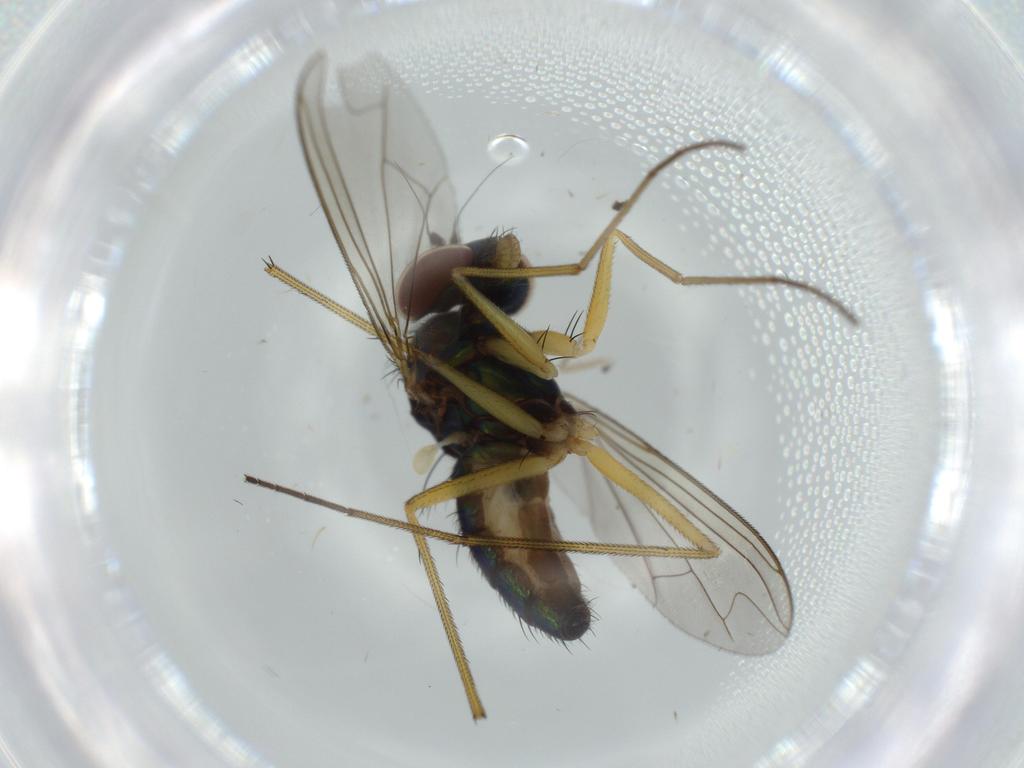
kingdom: Animalia
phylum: Arthropoda
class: Insecta
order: Diptera
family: Dolichopodidae
